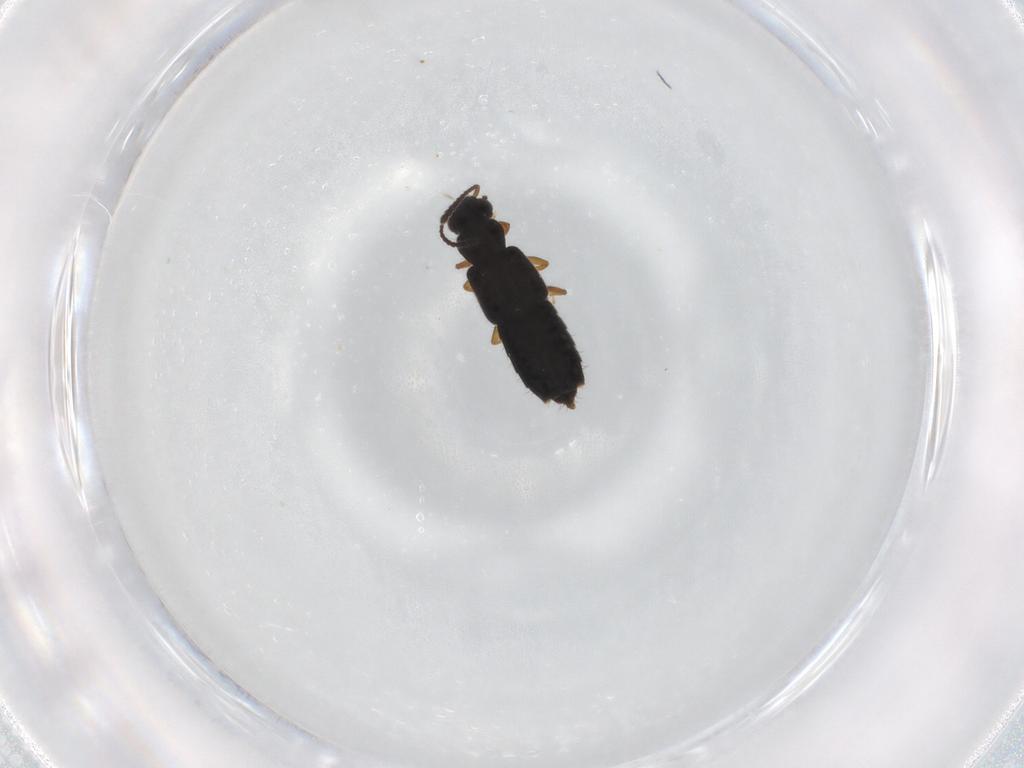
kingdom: Animalia
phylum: Arthropoda
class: Insecta
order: Coleoptera
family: Staphylinidae
